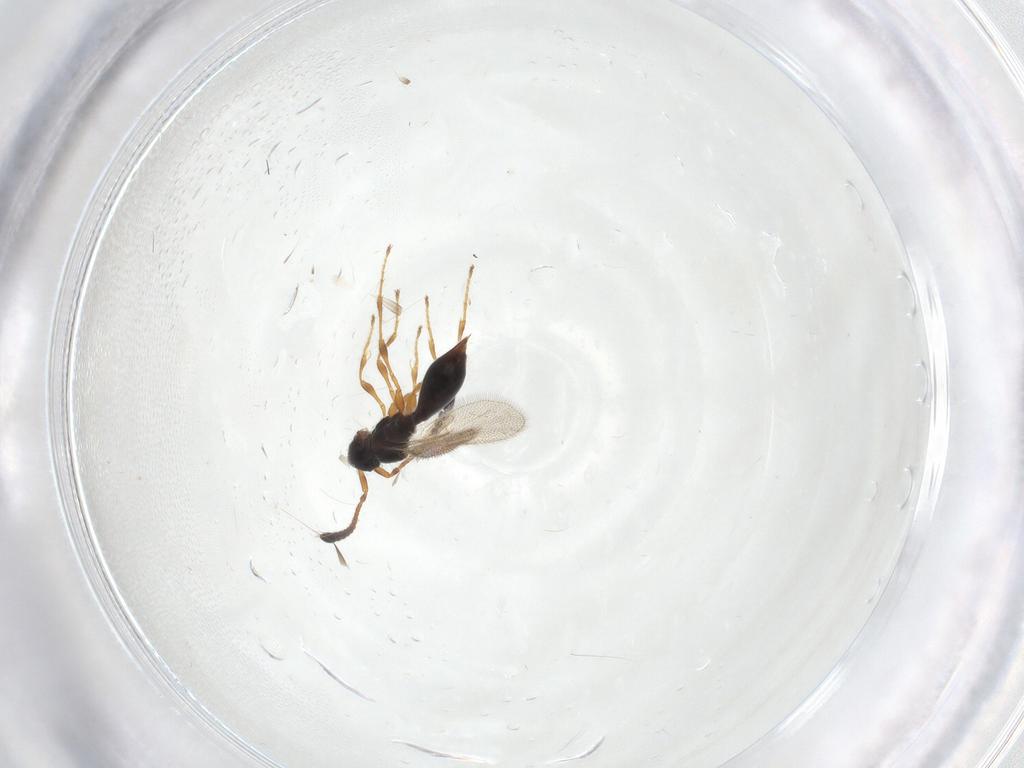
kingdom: Animalia
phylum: Arthropoda
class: Insecta
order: Hymenoptera
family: Diapriidae
